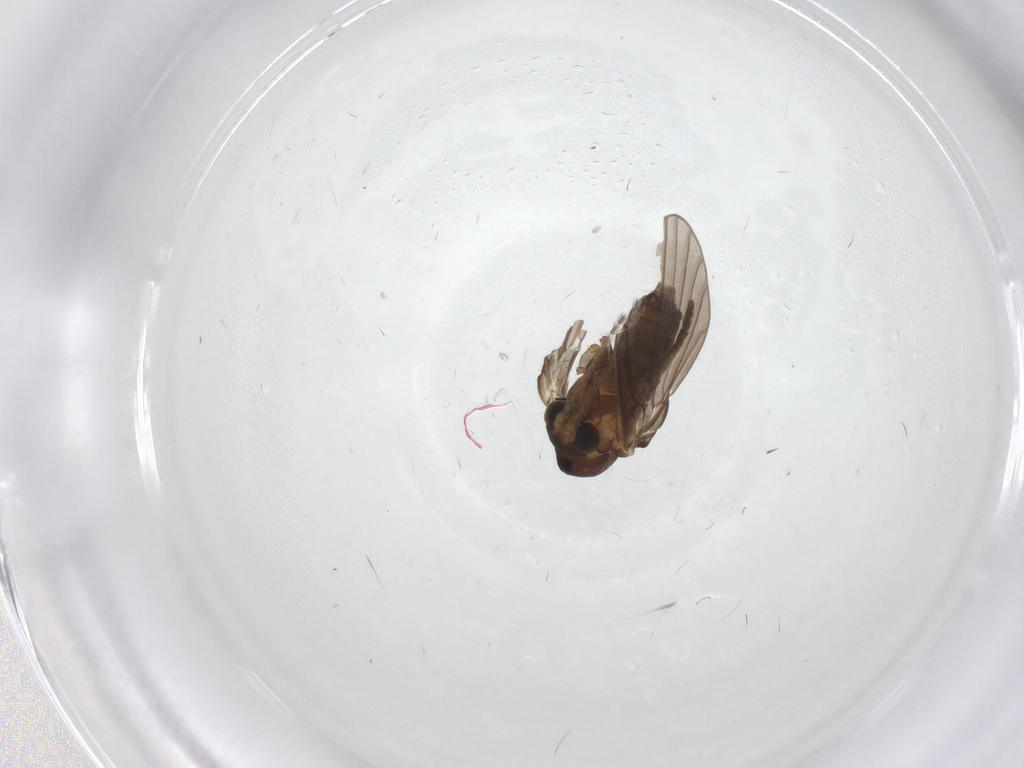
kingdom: Animalia
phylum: Arthropoda
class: Insecta
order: Diptera
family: Psychodidae
